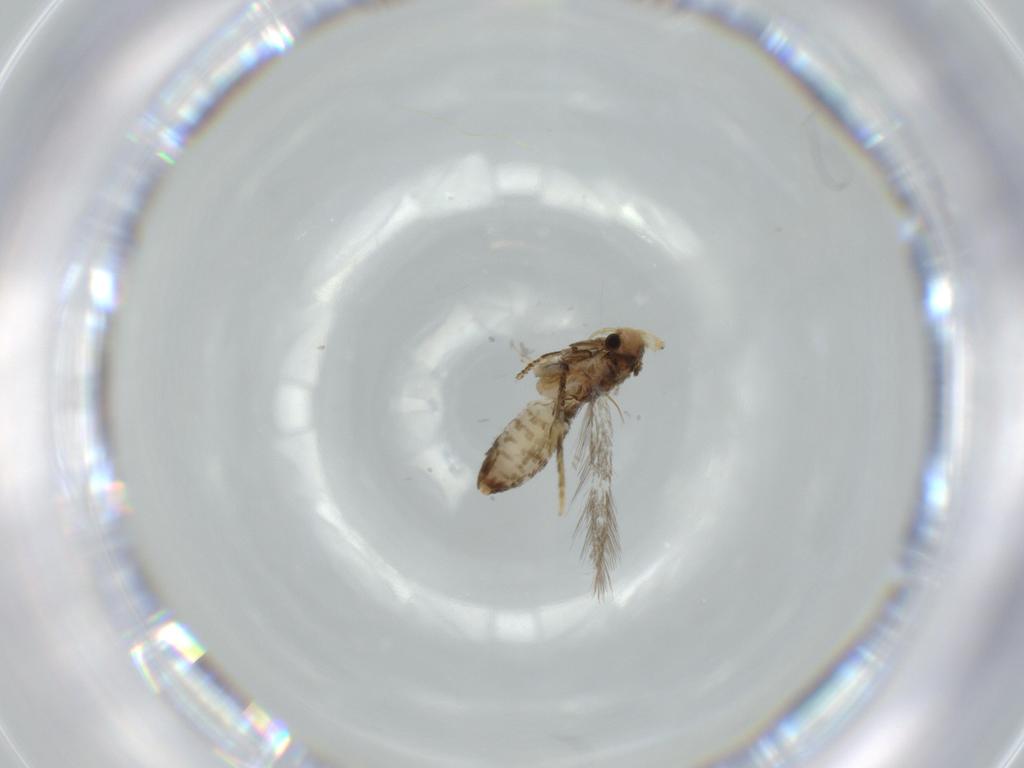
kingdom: Animalia
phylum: Arthropoda
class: Insecta
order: Lepidoptera
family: Nepticulidae
